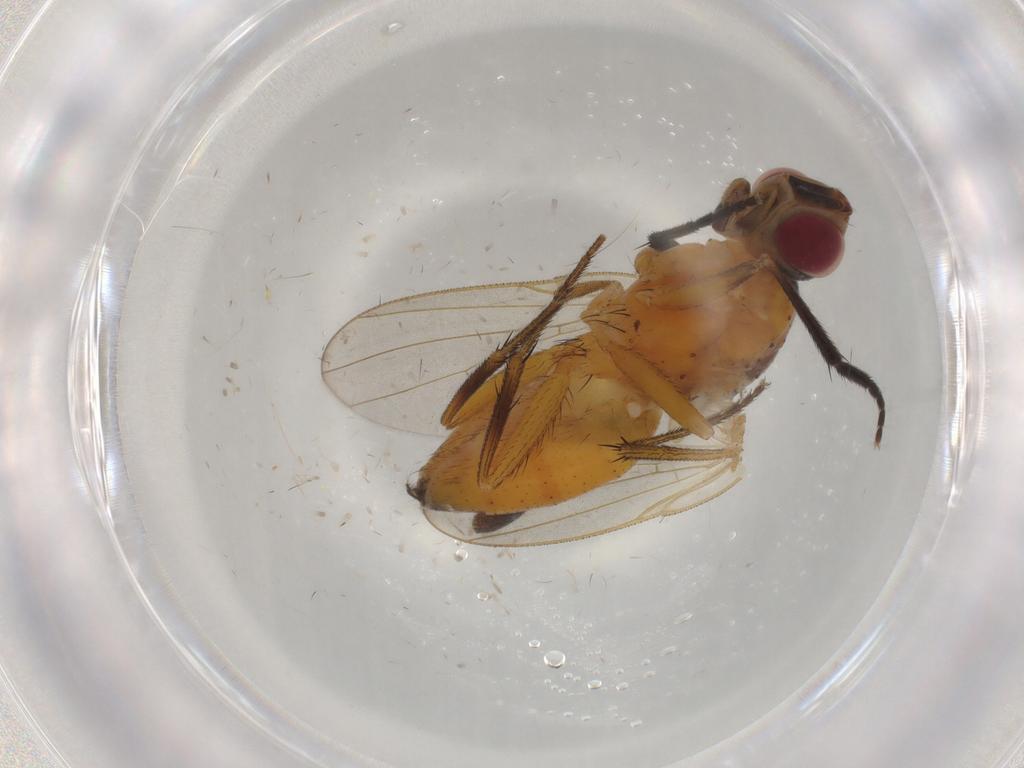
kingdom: Animalia
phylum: Arthropoda
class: Insecta
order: Diptera
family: Muscidae
